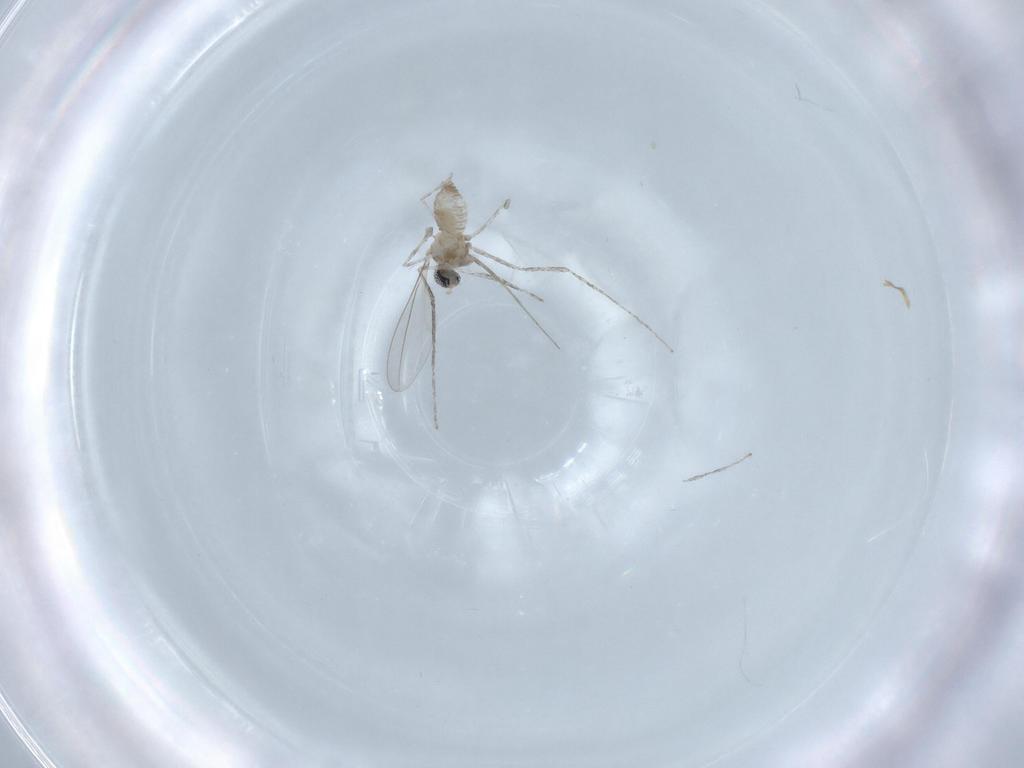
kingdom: Animalia
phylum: Arthropoda
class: Insecta
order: Diptera
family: Cecidomyiidae
